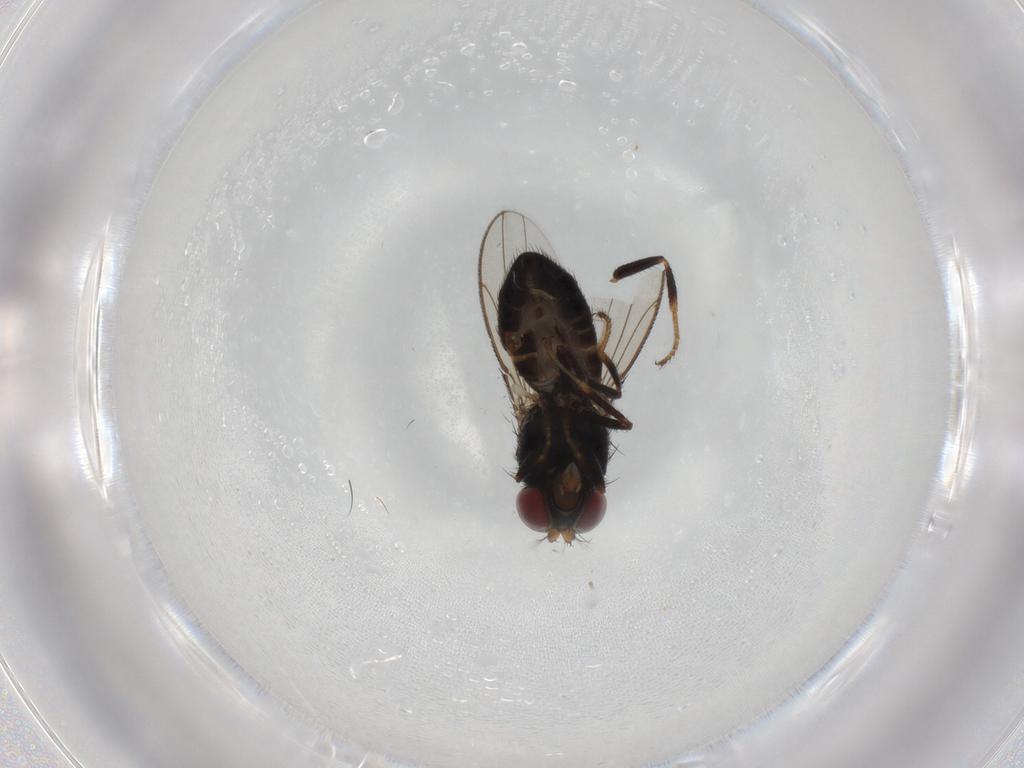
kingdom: Animalia
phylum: Arthropoda
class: Insecta
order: Diptera
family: Ephydridae
